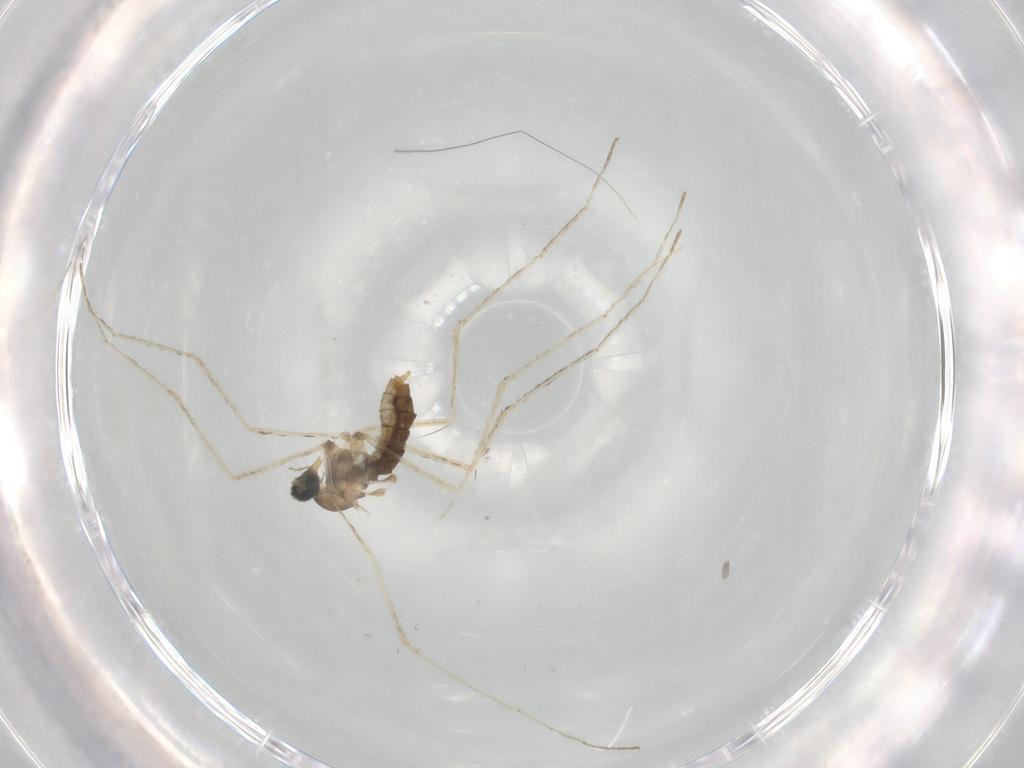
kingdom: Animalia
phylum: Arthropoda
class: Insecta
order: Diptera
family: Cecidomyiidae
